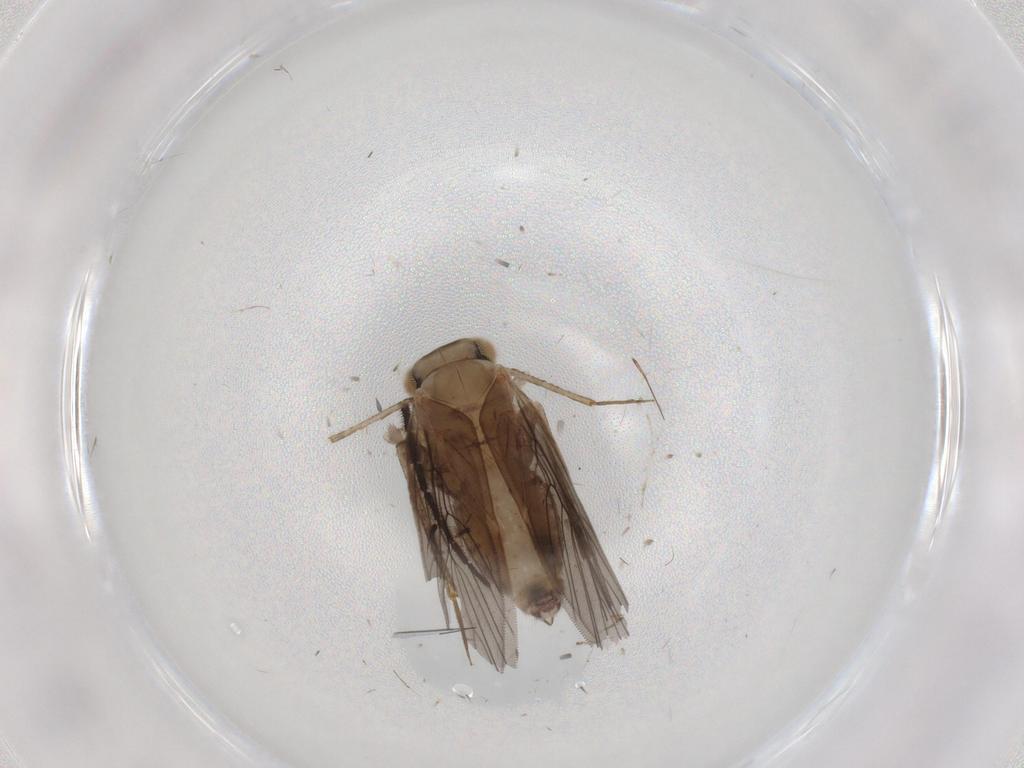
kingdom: Animalia
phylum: Arthropoda
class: Insecta
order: Psocodea
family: Lepidopsocidae
